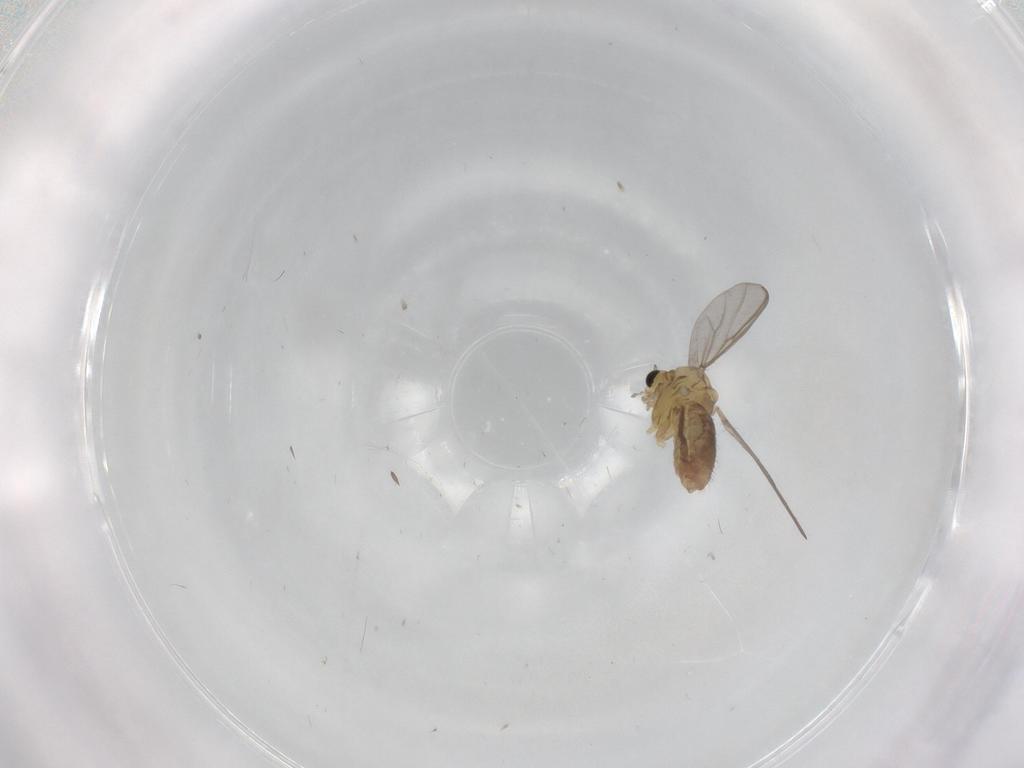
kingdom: Animalia
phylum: Arthropoda
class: Insecta
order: Diptera
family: Chironomidae
